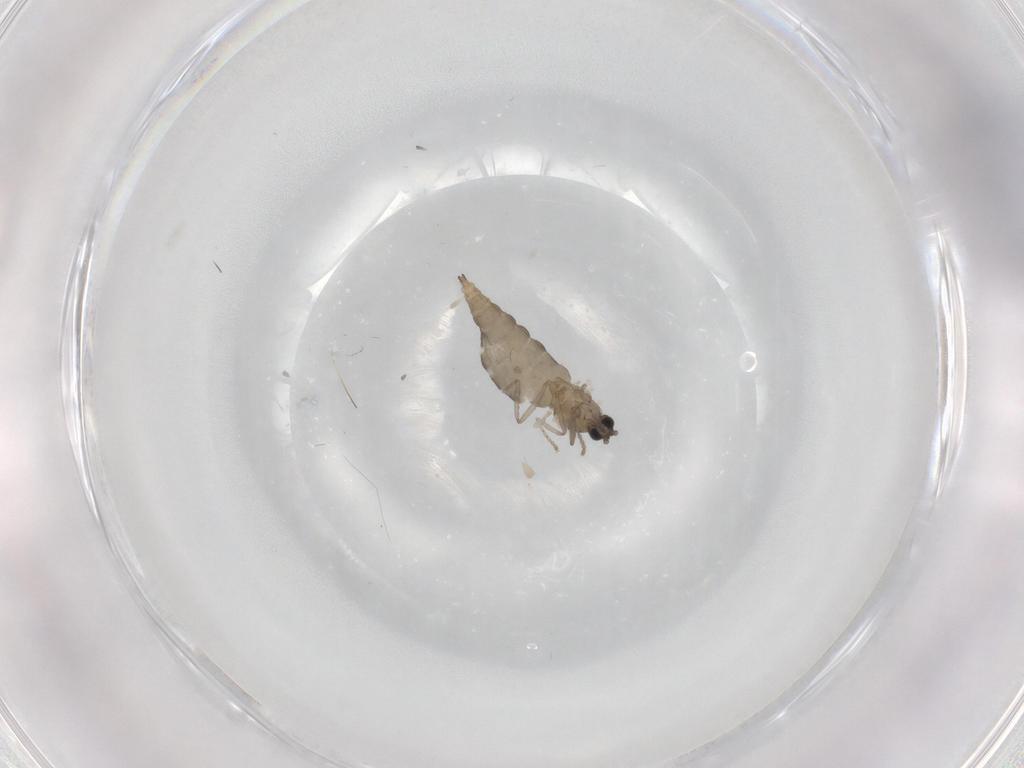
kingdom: Animalia
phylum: Arthropoda
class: Insecta
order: Diptera
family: Cecidomyiidae
